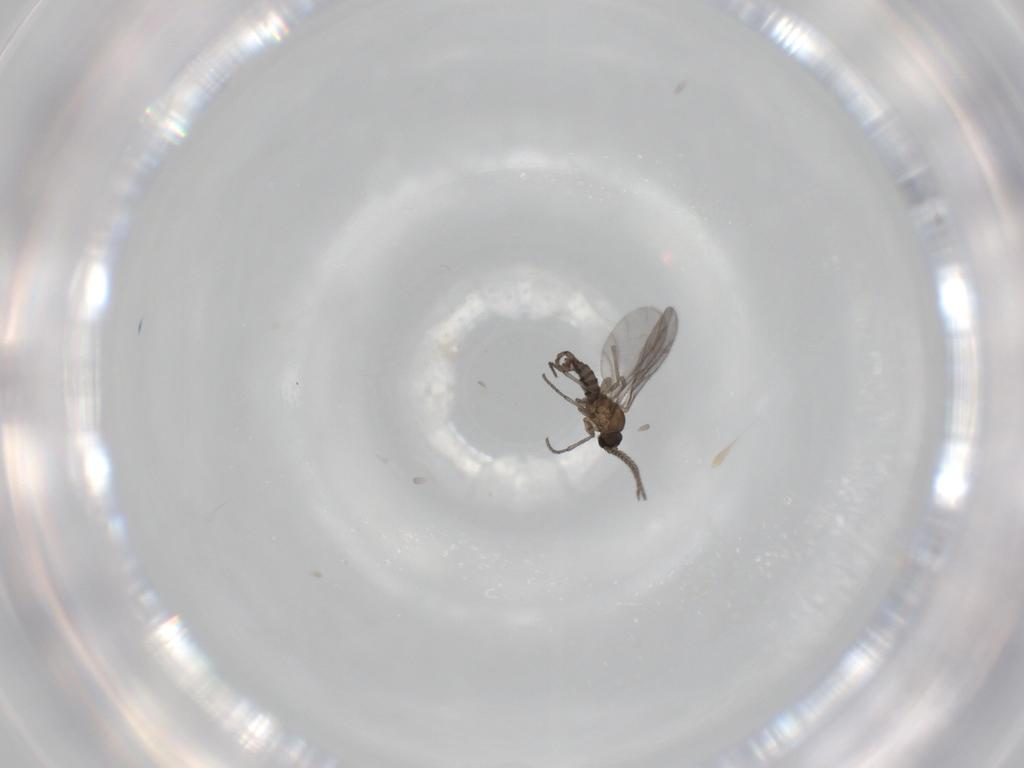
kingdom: Animalia
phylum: Arthropoda
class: Insecta
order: Diptera
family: Sciaridae
